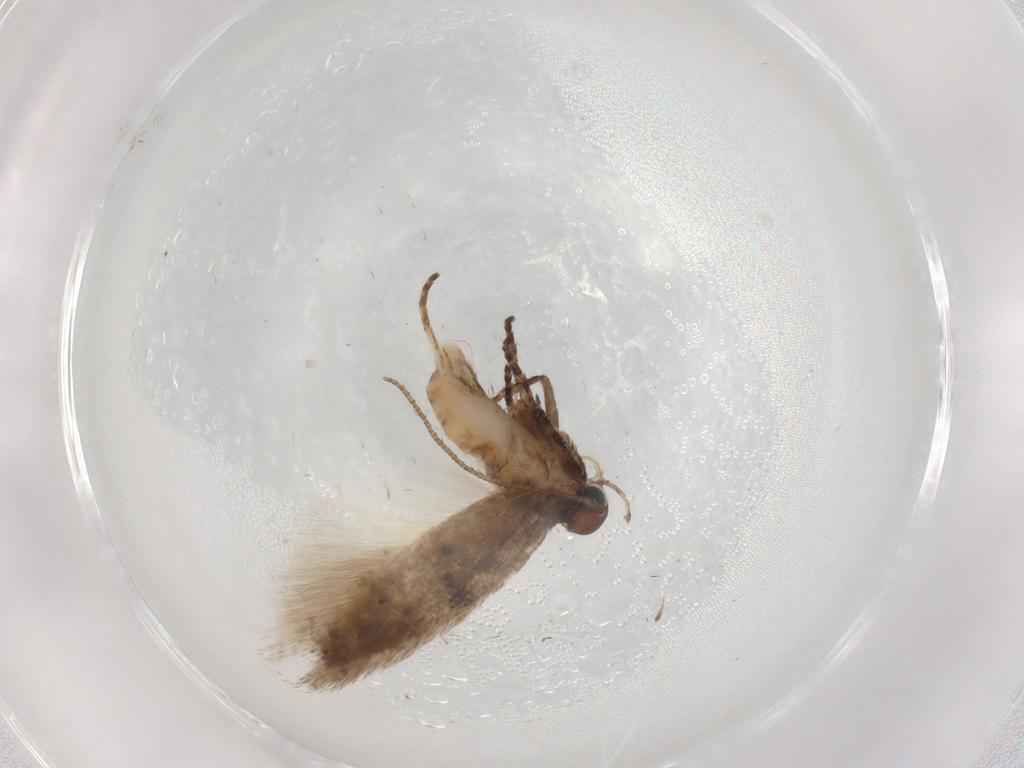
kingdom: Animalia
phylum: Arthropoda
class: Insecta
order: Lepidoptera
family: Gelechiidae
